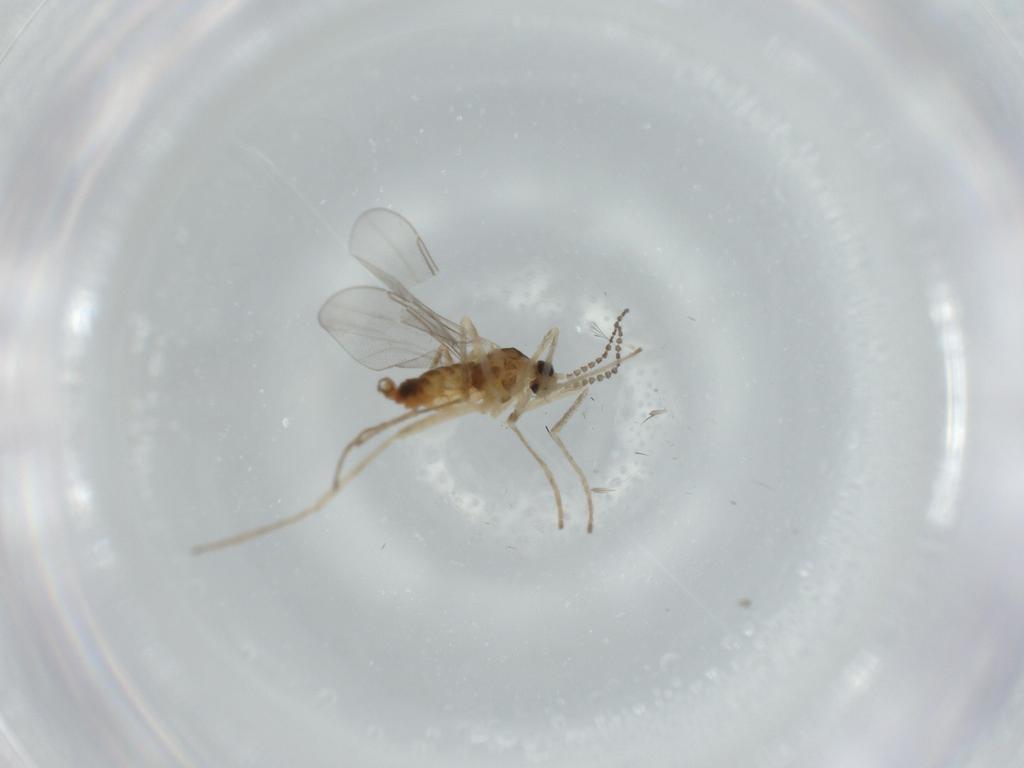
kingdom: Animalia
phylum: Arthropoda
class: Insecta
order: Diptera
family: Cecidomyiidae
